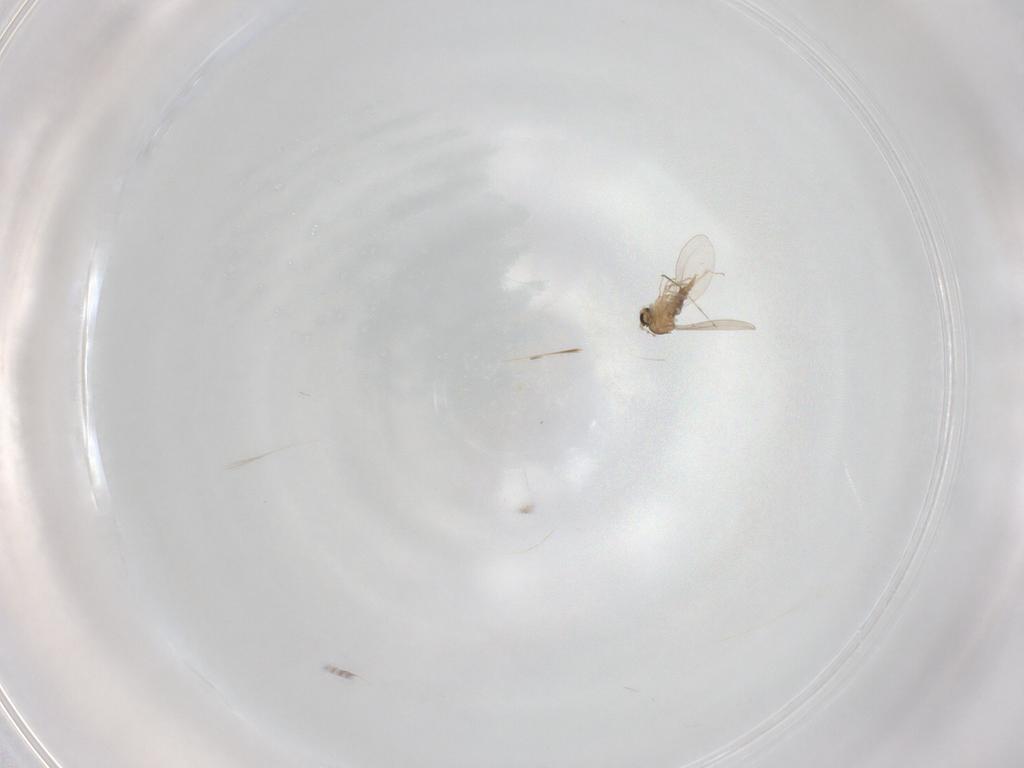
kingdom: Animalia
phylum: Arthropoda
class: Insecta
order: Diptera
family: Cecidomyiidae
